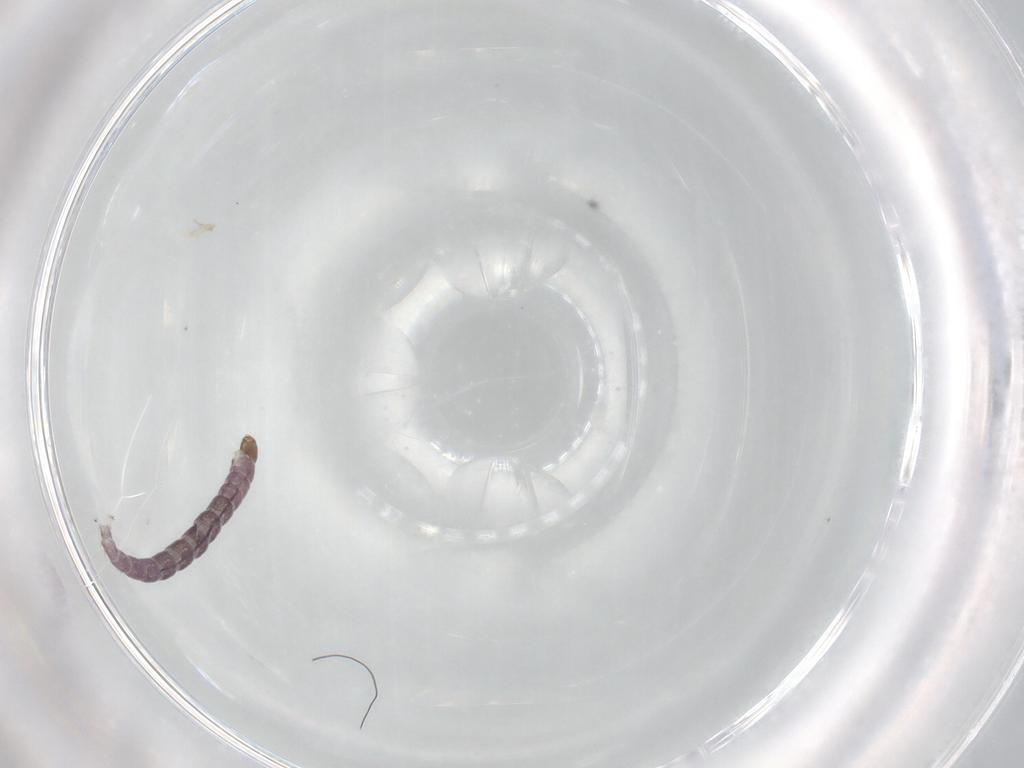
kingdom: Animalia
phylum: Arthropoda
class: Insecta
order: Diptera
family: Chironomidae
